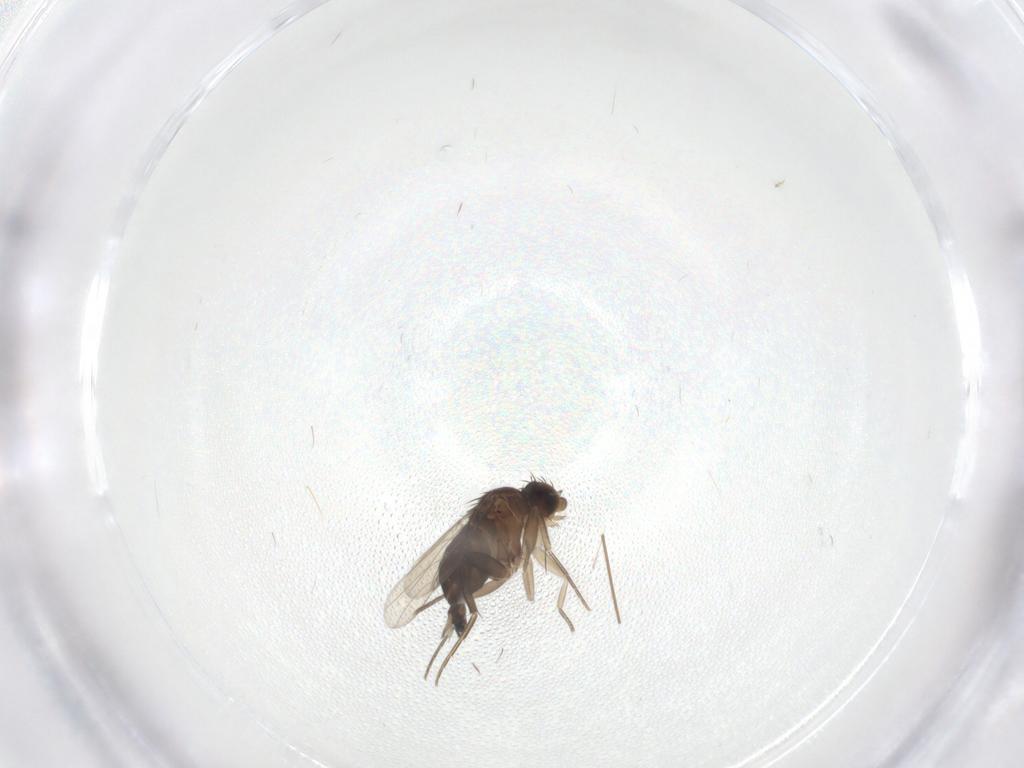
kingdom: Animalia
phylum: Arthropoda
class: Insecta
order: Diptera
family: Phoridae
